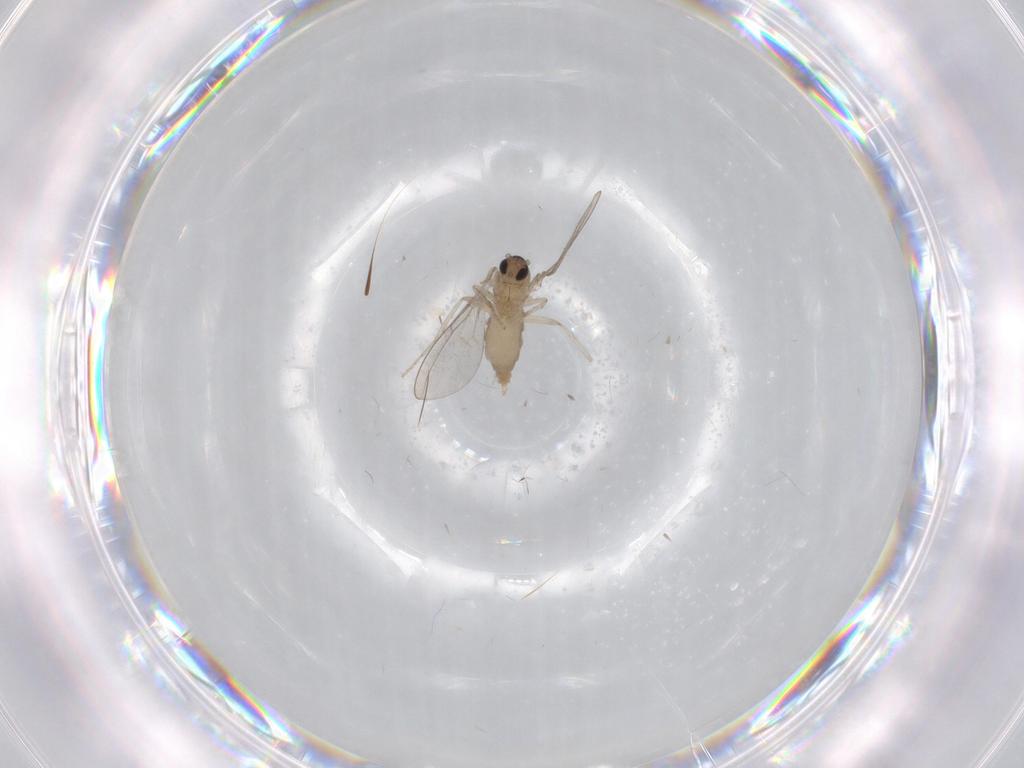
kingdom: Animalia
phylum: Arthropoda
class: Insecta
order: Diptera
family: Cecidomyiidae
